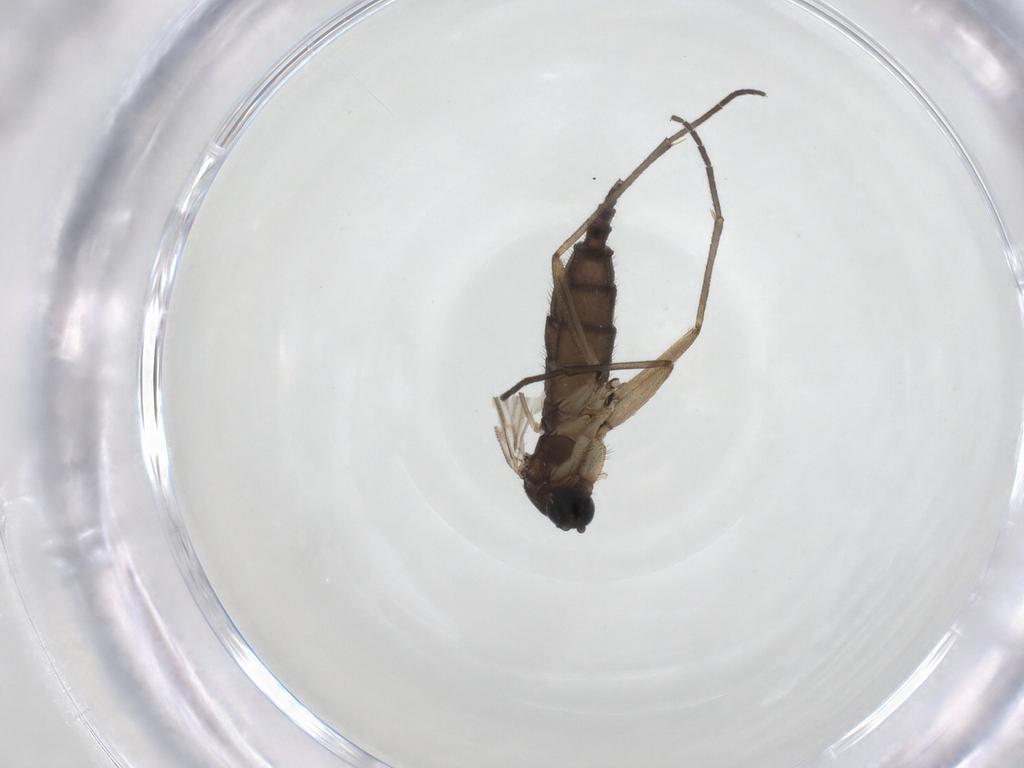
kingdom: Animalia
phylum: Arthropoda
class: Insecta
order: Diptera
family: Sciaridae
